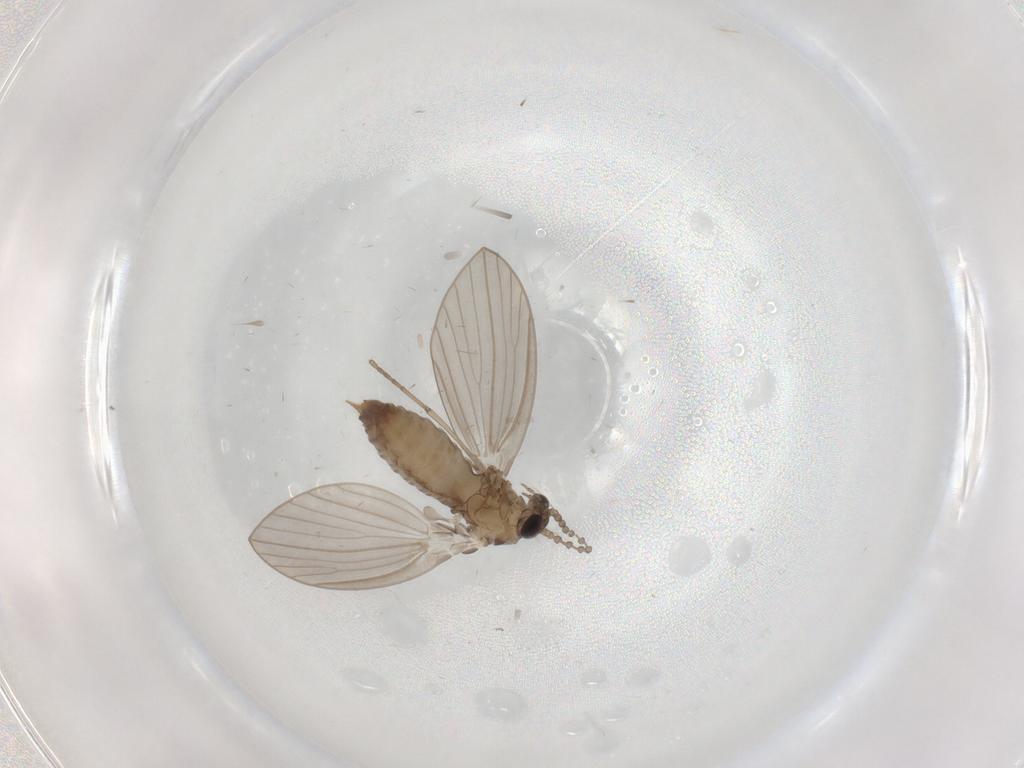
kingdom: Animalia
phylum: Arthropoda
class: Insecta
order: Diptera
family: Psychodidae
